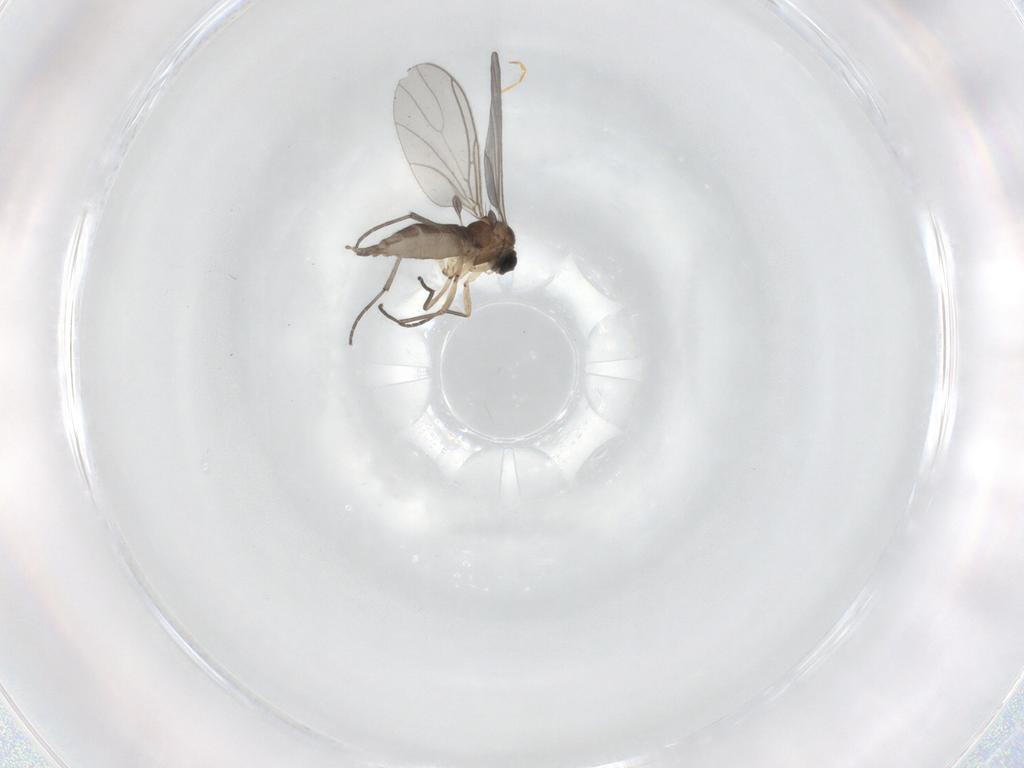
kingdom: Animalia
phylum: Arthropoda
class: Insecta
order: Diptera
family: Sciaridae
